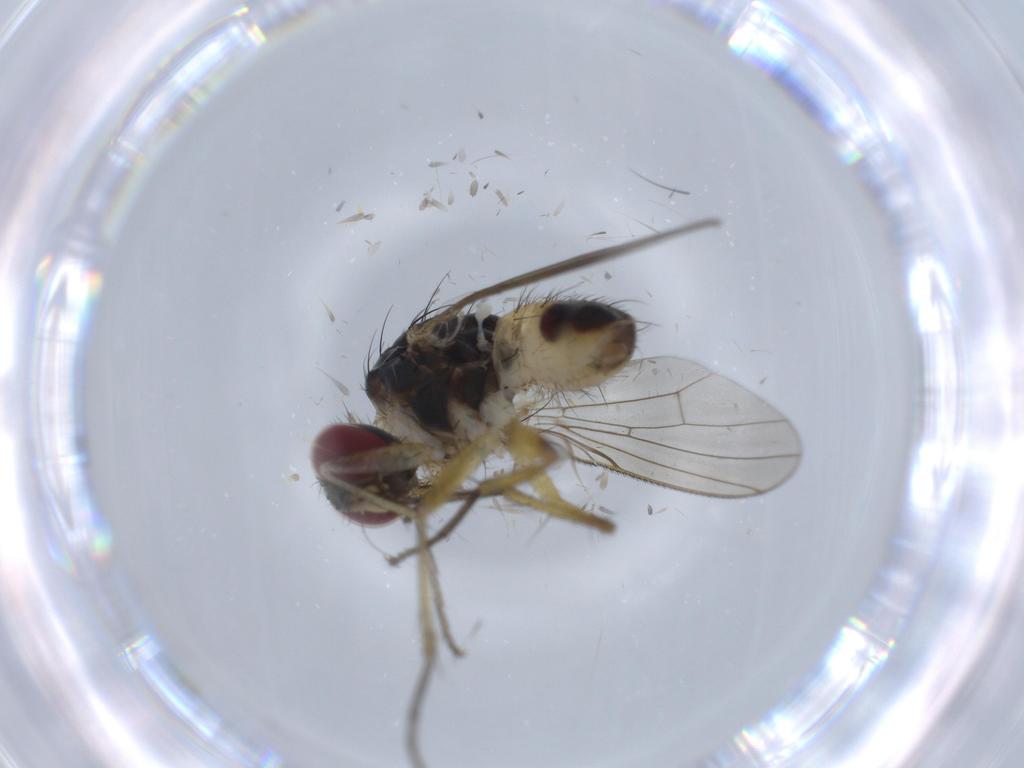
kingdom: Animalia
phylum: Arthropoda
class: Insecta
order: Diptera
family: Muscidae
